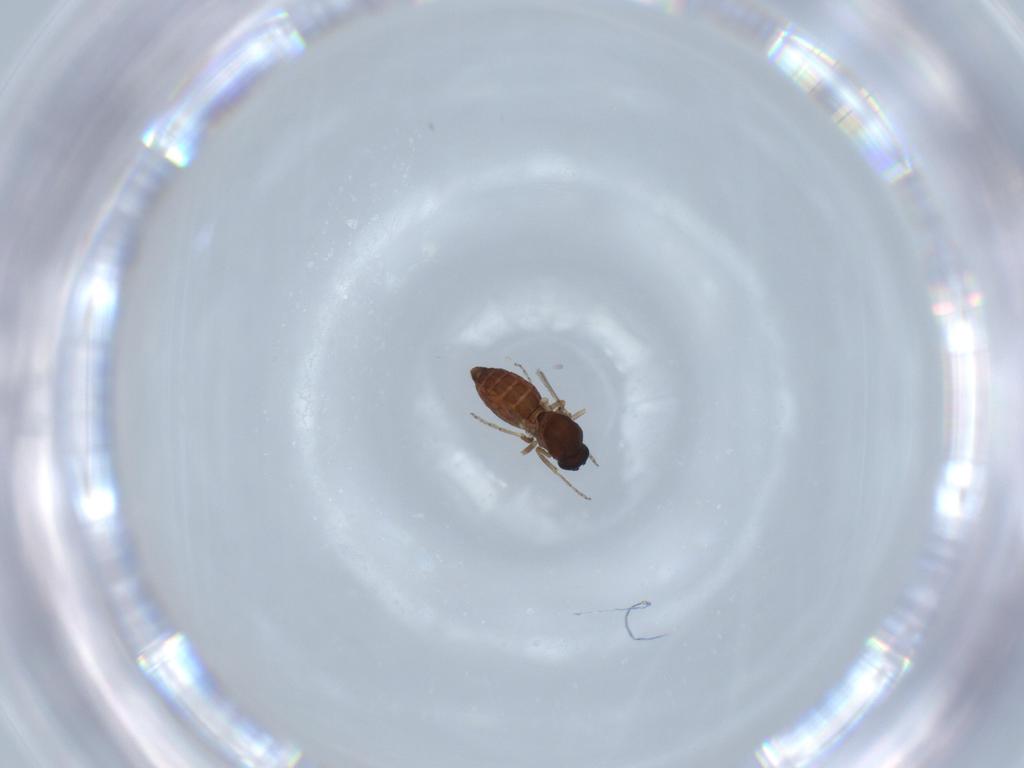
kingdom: Animalia
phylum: Arthropoda
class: Insecta
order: Diptera
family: Ceratopogonidae
